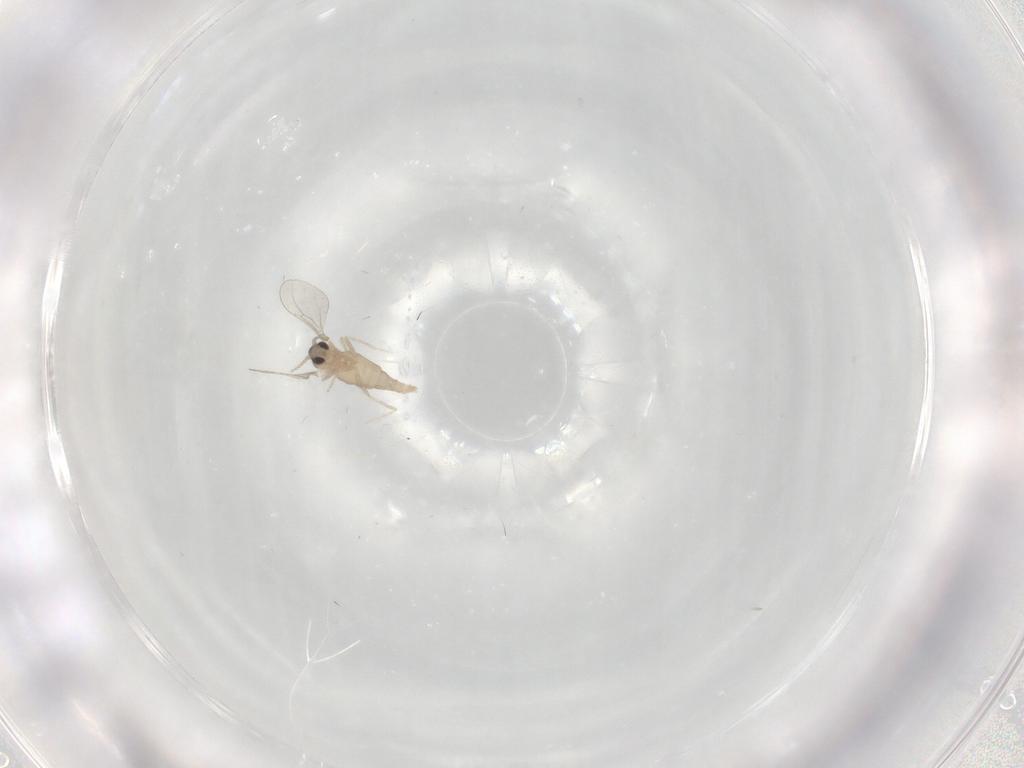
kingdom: Animalia
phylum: Arthropoda
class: Insecta
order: Diptera
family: Cecidomyiidae
